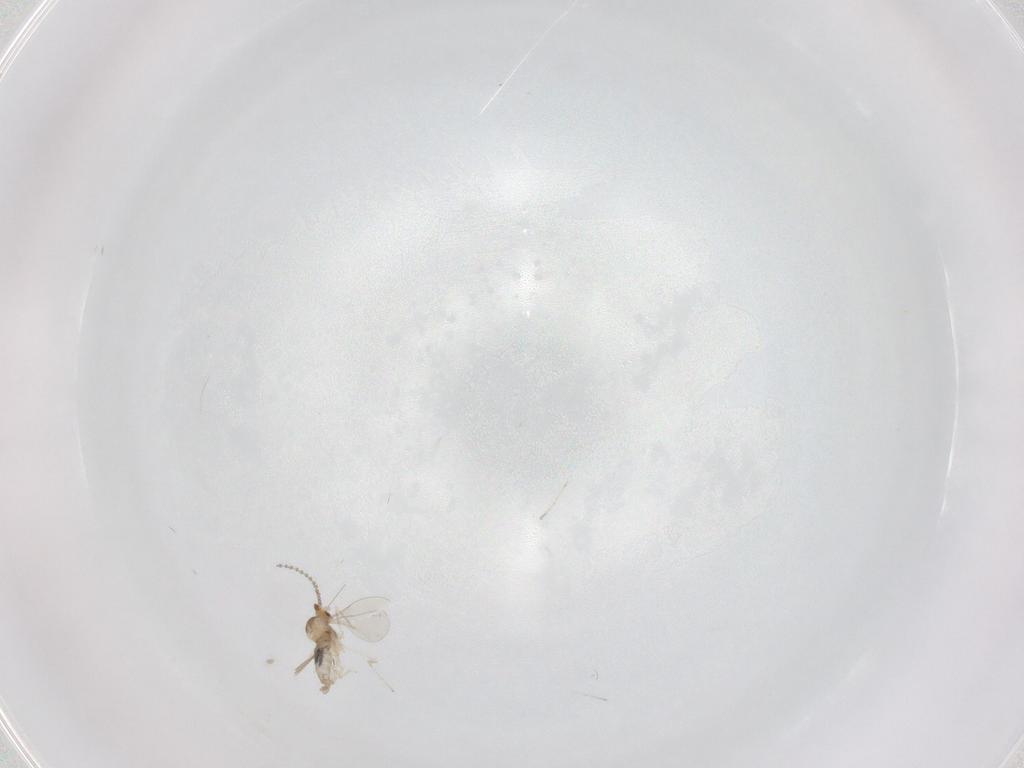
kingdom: Animalia
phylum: Arthropoda
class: Insecta
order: Diptera
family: Cecidomyiidae
